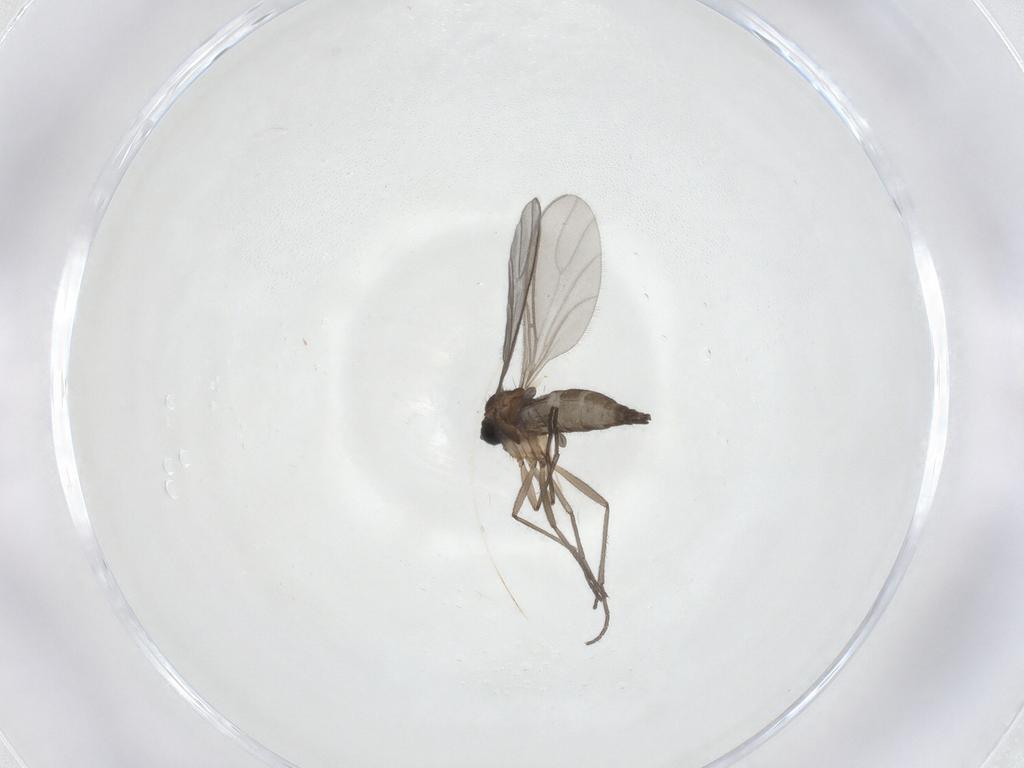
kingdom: Animalia
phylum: Arthropoda
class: Insecta
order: Diptera
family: Sciaridae
